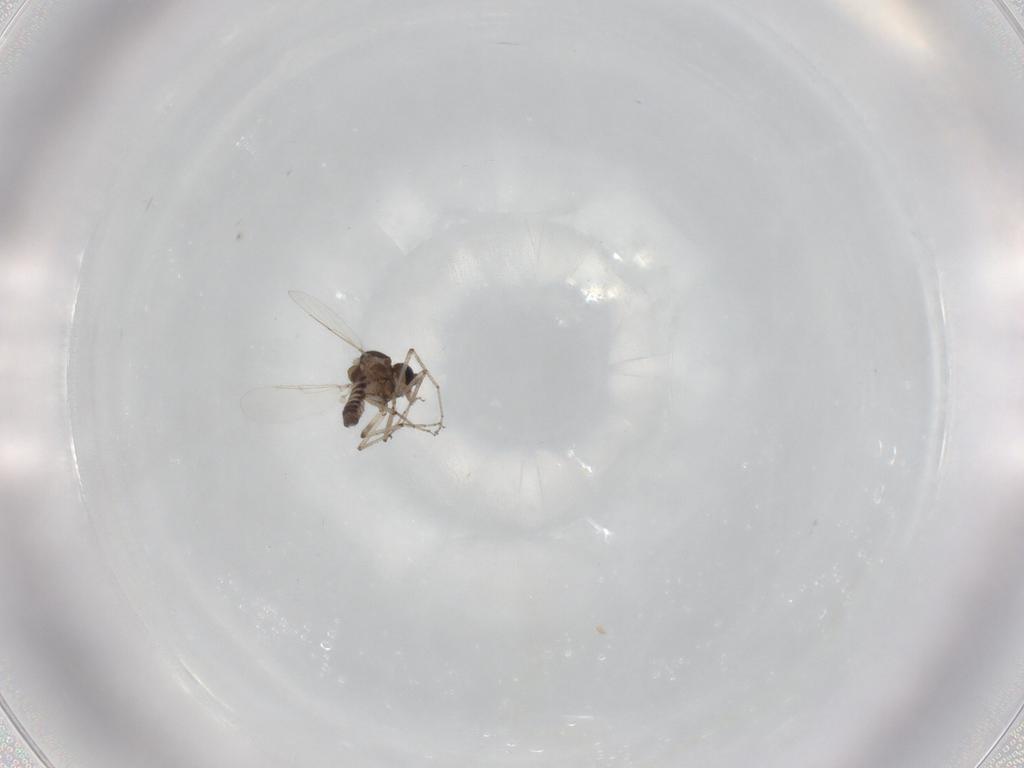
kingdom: Animalia
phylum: Arthropoda
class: Insecta
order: Diptera
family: Ceratopogonidae
